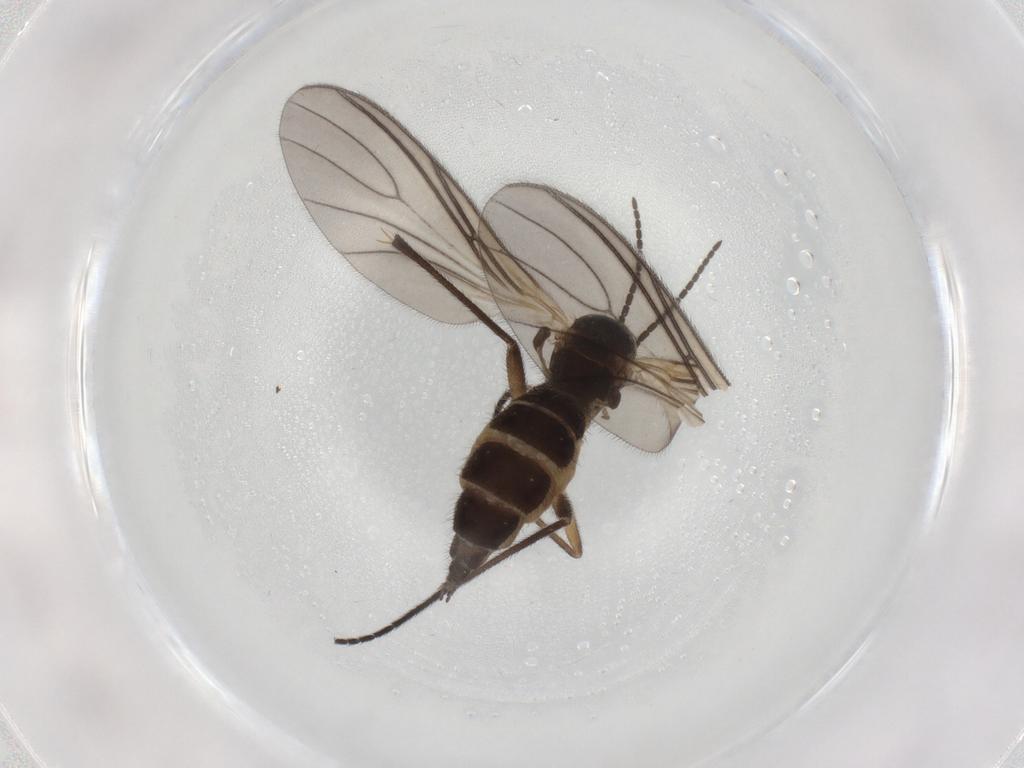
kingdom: Animalia
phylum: Arthropoda
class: Insecta
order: Diptera
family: Sciaridae
